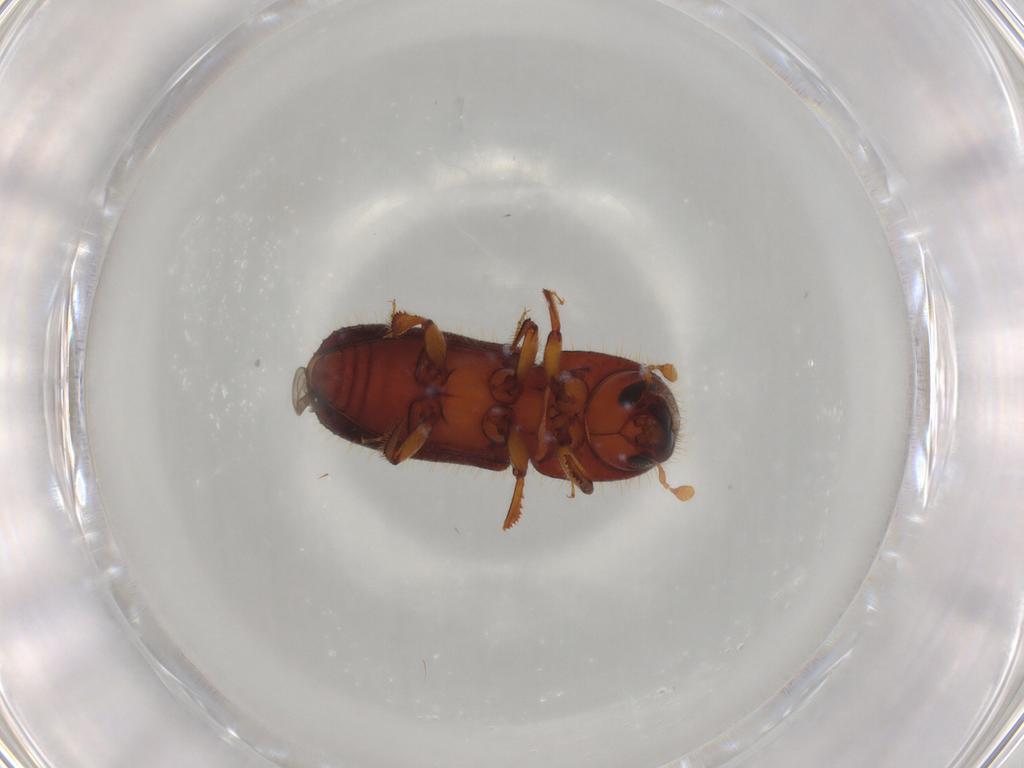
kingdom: Animalia
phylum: Arthropoda
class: Insecta
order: Coleoptera
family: Curculionidae
